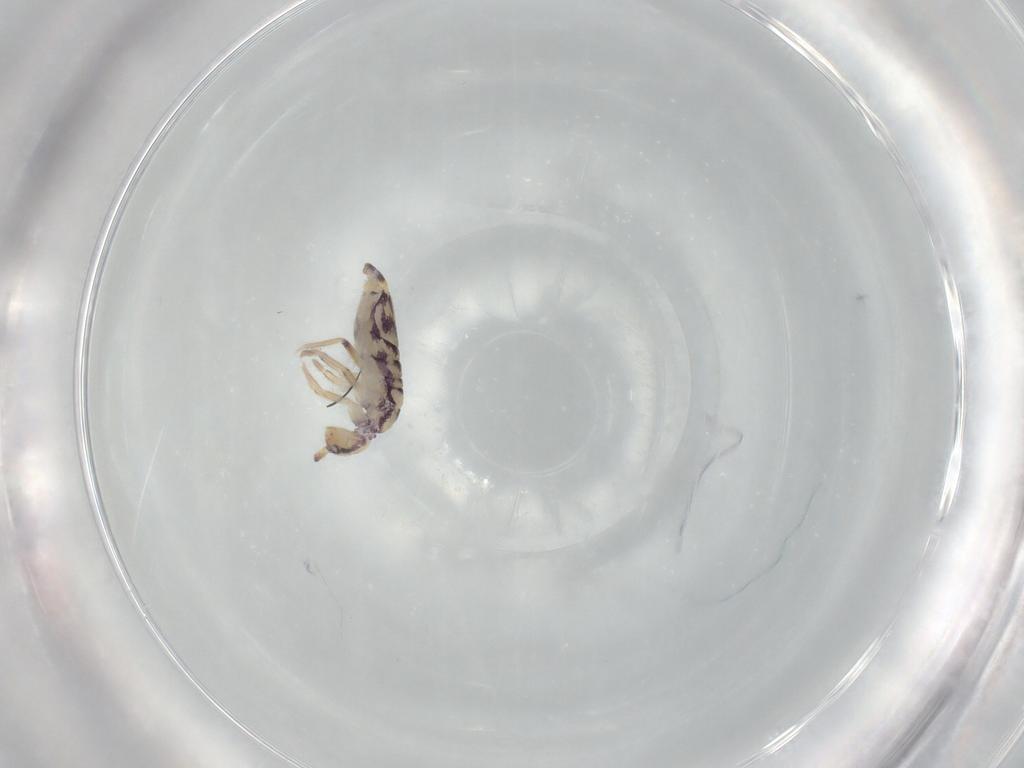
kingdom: Animalia
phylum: Arthropoda
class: Collembola
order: Entomobryomorpha
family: Entomobryidae
